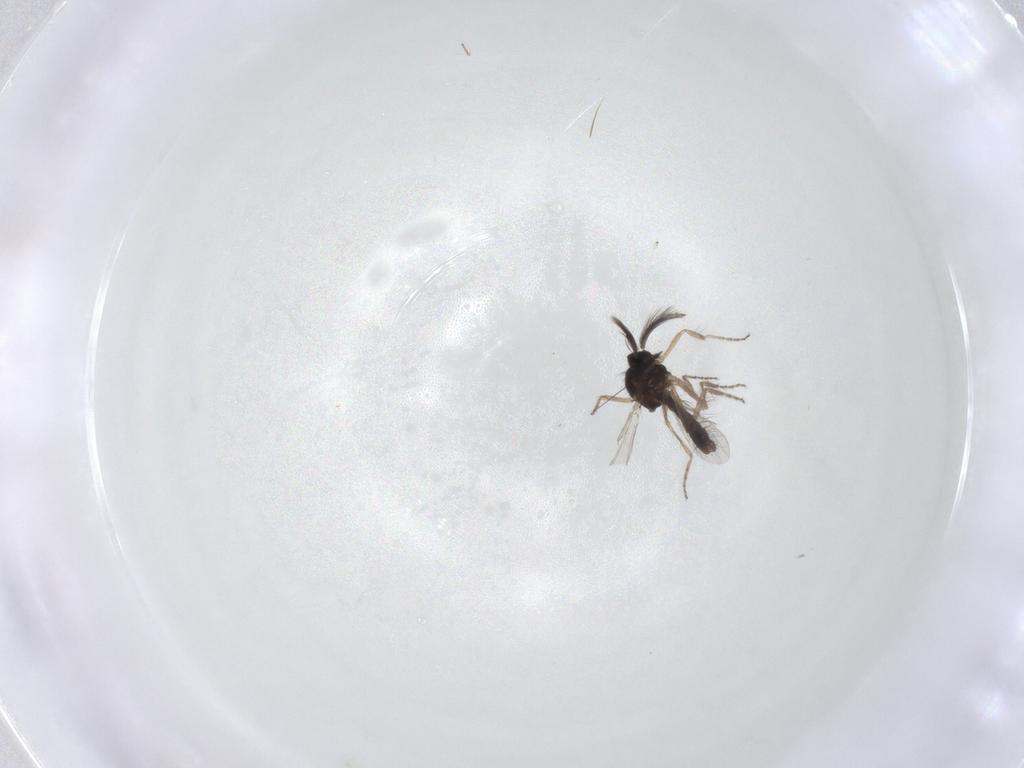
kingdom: Animalia
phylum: Arthropoda
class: Insecta
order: Diptera
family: Ceratopogonidae
